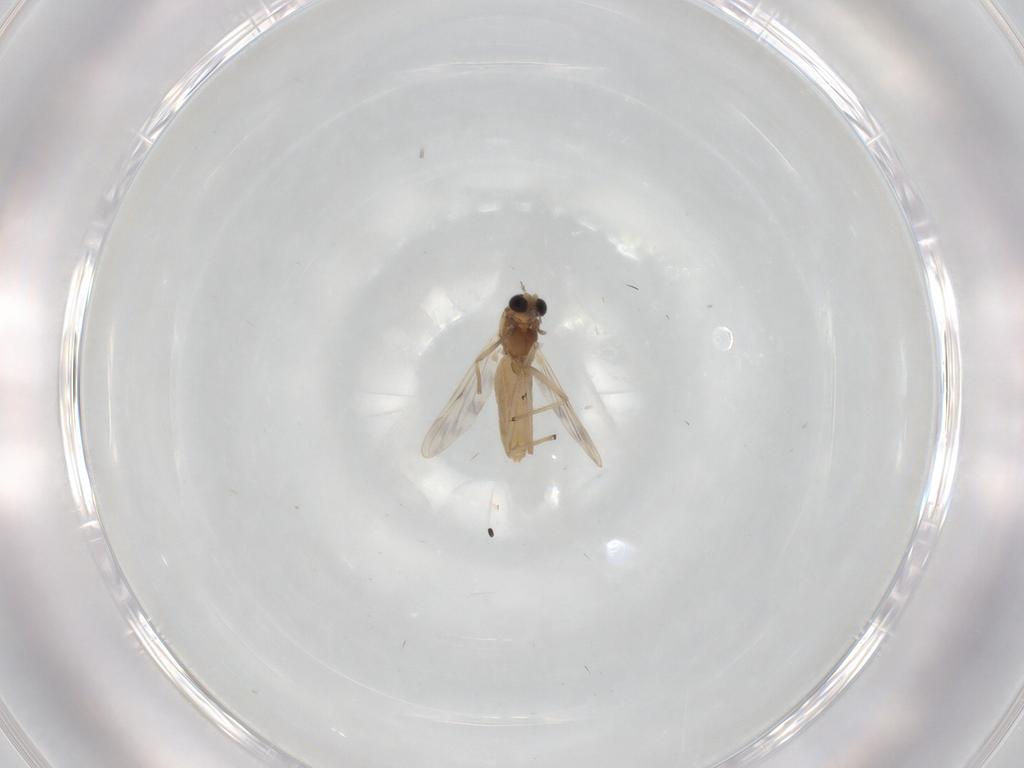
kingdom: Animalia
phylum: Arthropoda
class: Insecta
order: Diptera
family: Chironomidae
